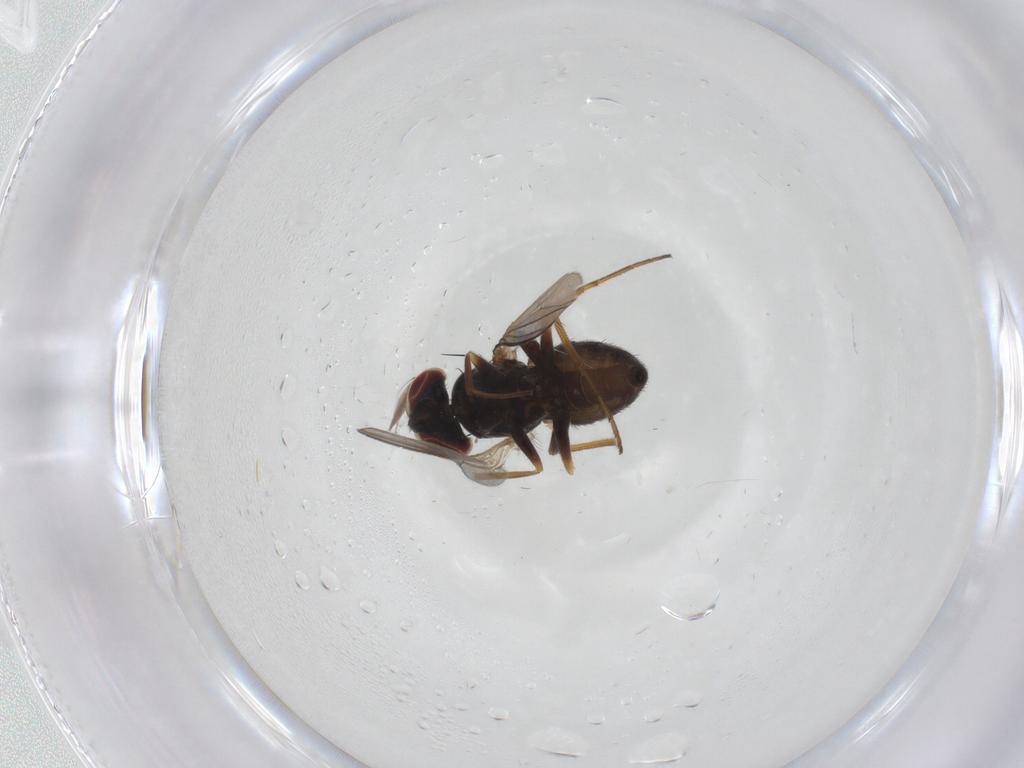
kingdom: Animalia
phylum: Arthropoda
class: Insecta
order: Diptera
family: Dolichopodidae
